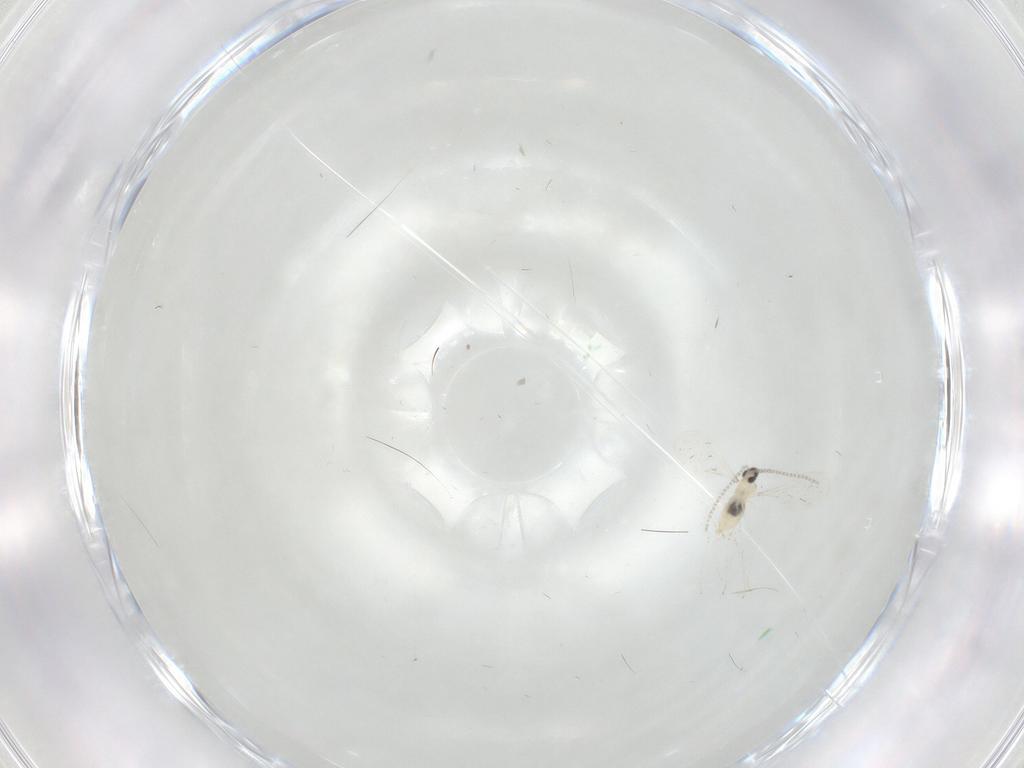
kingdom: Animalia
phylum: Arthropoda
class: Insecta
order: Diptera
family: Cecidomyiidae
